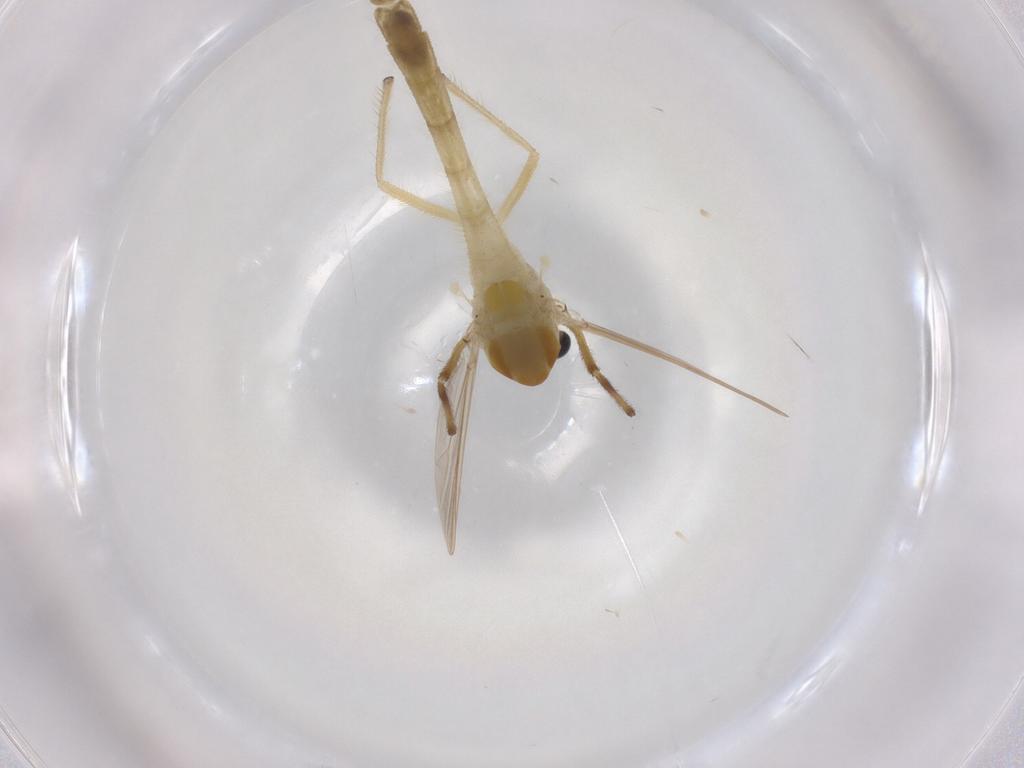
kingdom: Animalia
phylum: Arthropoda
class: Insecta
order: Diptera
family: Chironomidae
